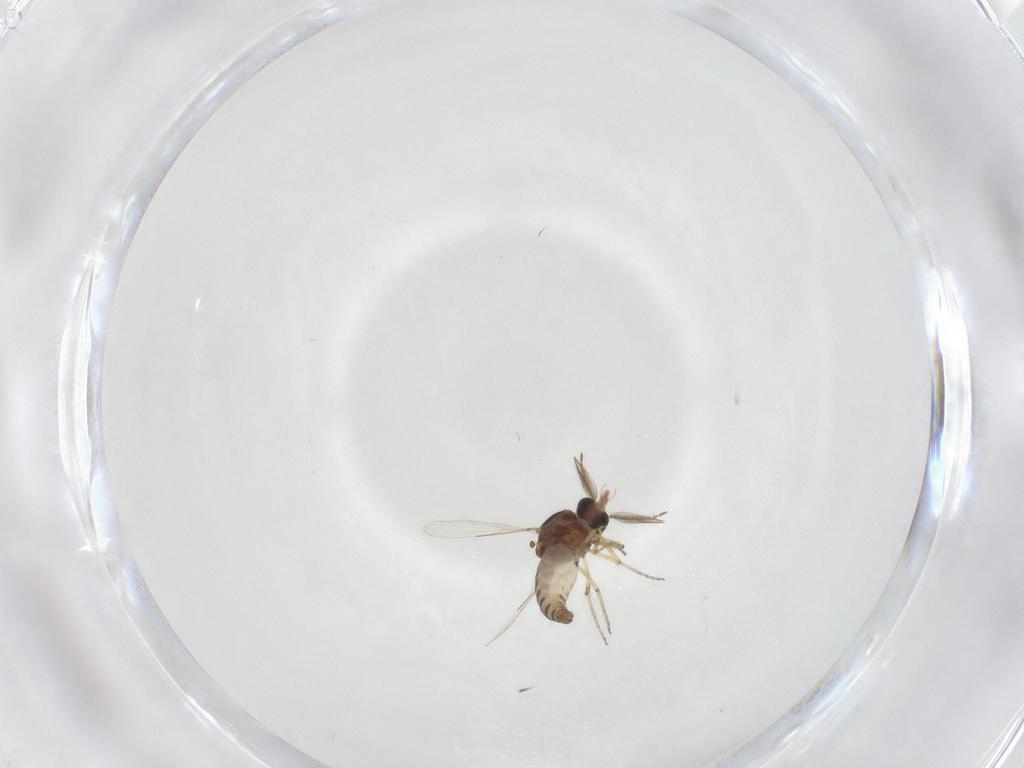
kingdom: Animalia
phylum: Arthropoda
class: Insecta
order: Diptera
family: Ceratopogonidae
